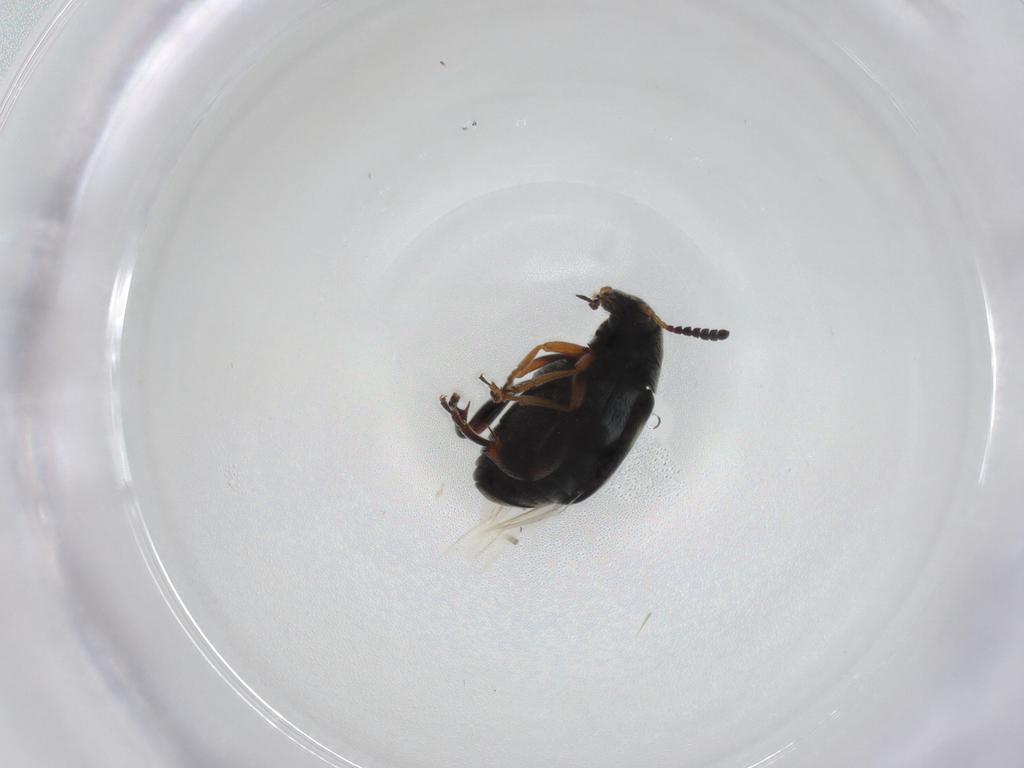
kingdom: Animalia
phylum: Arthropoda
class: Insecta
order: Coleoptera
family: Chrysomelidae
